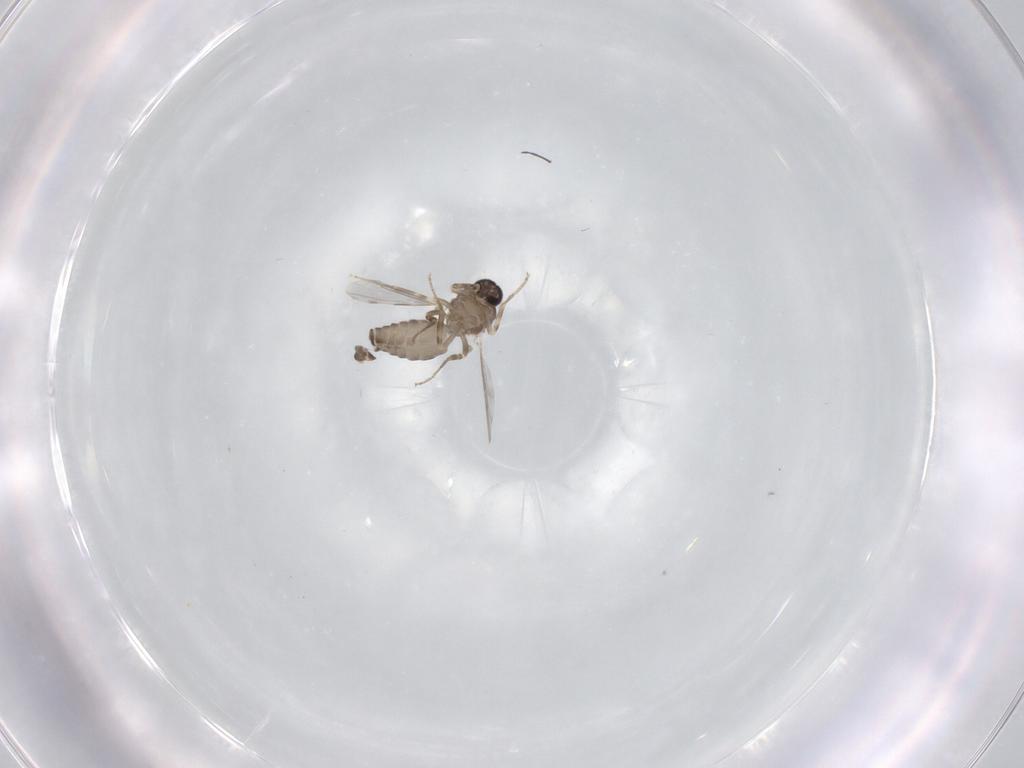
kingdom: Animalia
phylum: Arthropoda
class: Insecta
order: Diptera
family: Ceratopogonidae
